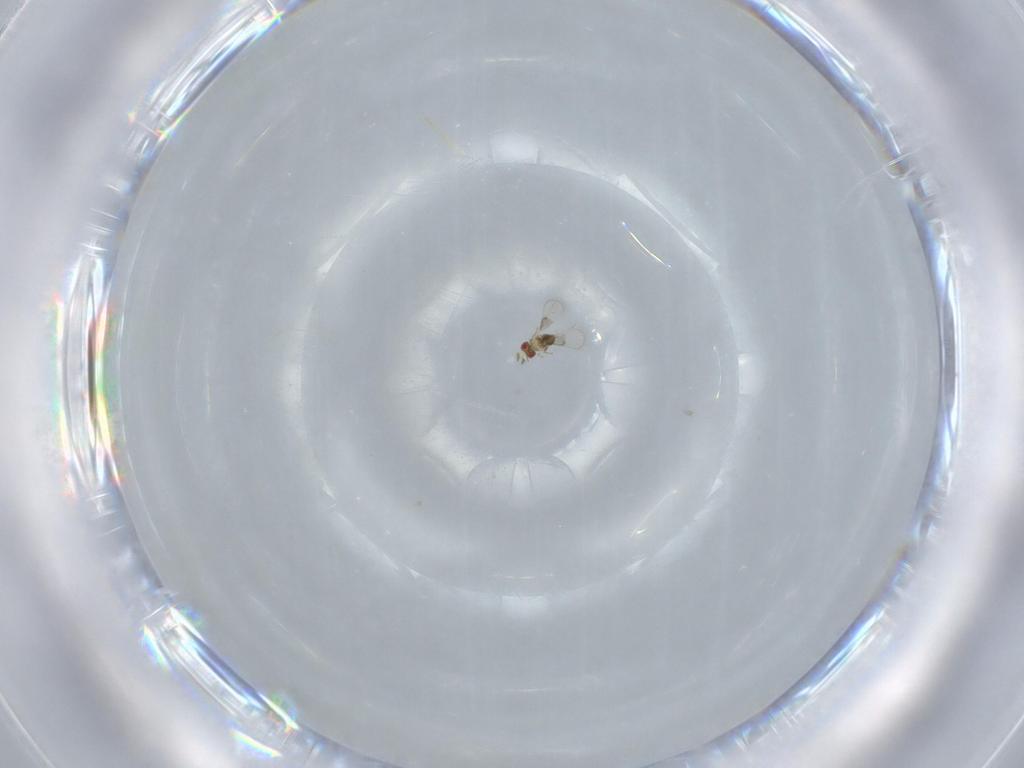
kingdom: Animalia
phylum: Arthropoda
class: Insecta
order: Hymenoptera
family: Trichogrammatidae
